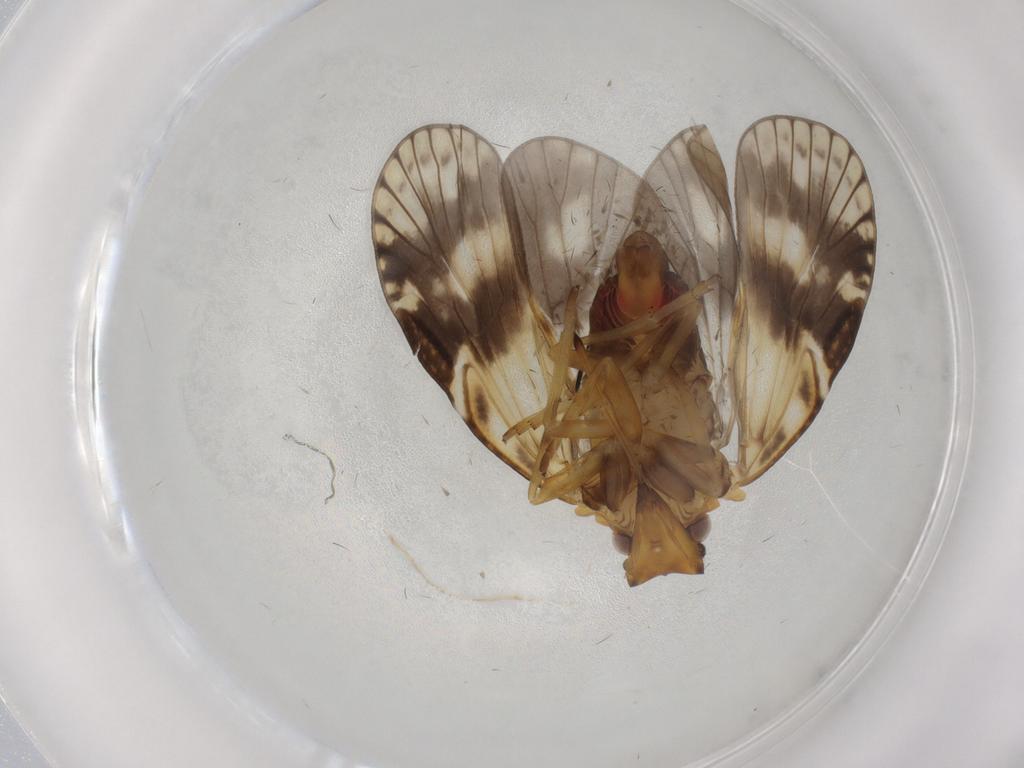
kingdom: Animalia
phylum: Arthropoda
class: Insecta
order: Hemiptera
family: Cixiidae
